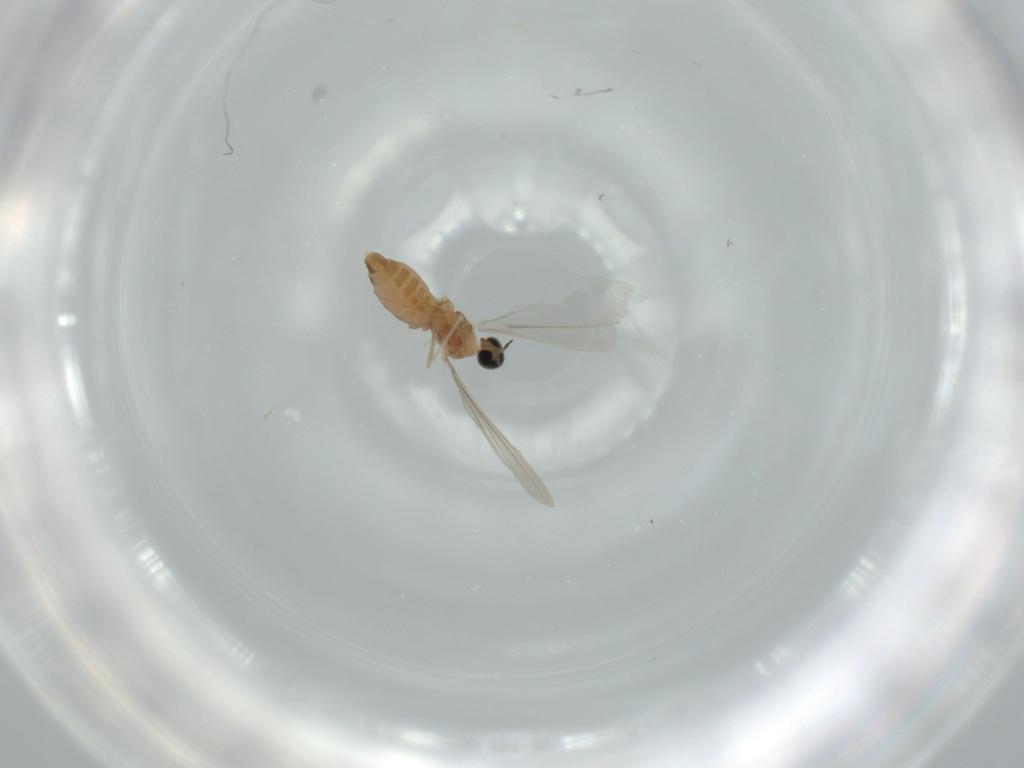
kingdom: Animalia
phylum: Arthropoda
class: Insecta
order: Diptera
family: Cecidomyiidae
